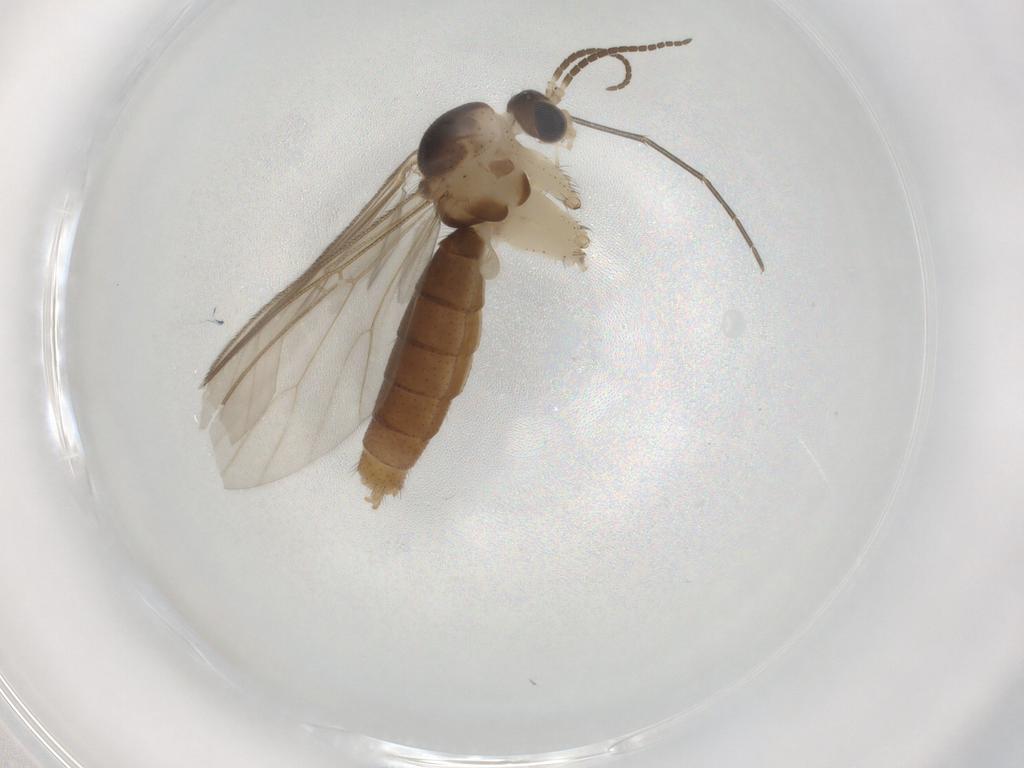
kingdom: Animalia
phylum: Arthropoda
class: Insecta
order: Diptera
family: Mycetophilidae
